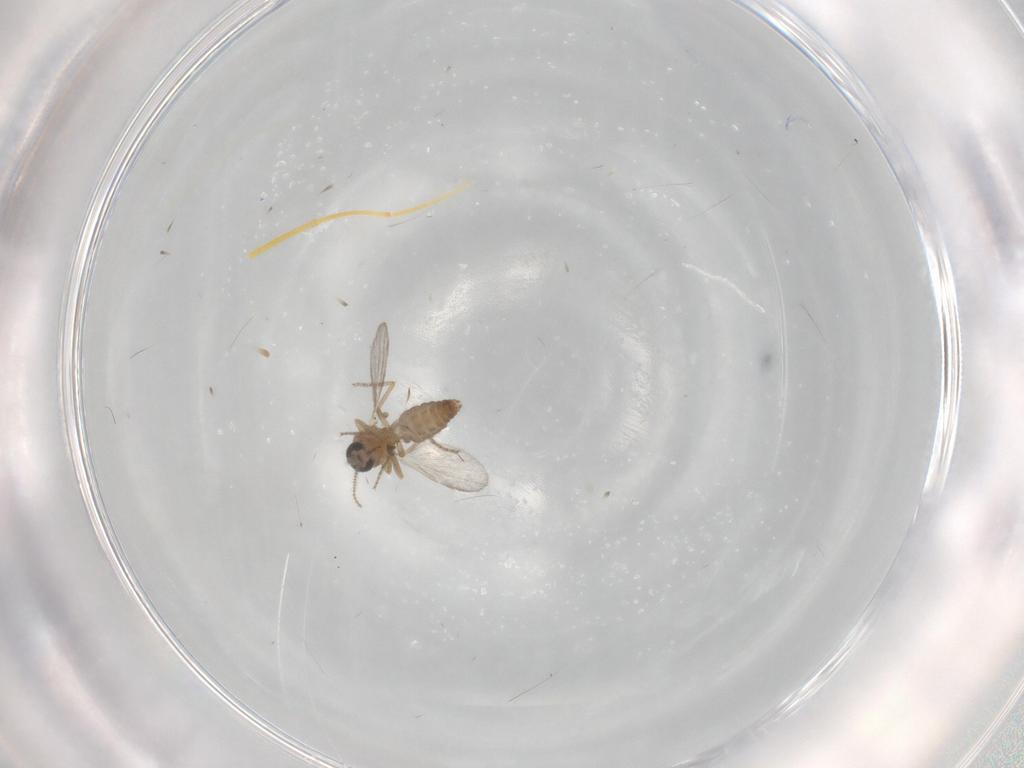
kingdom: Animalia
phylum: Arthropoda
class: Insecta
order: Diptera
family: Ceratopogonidae
